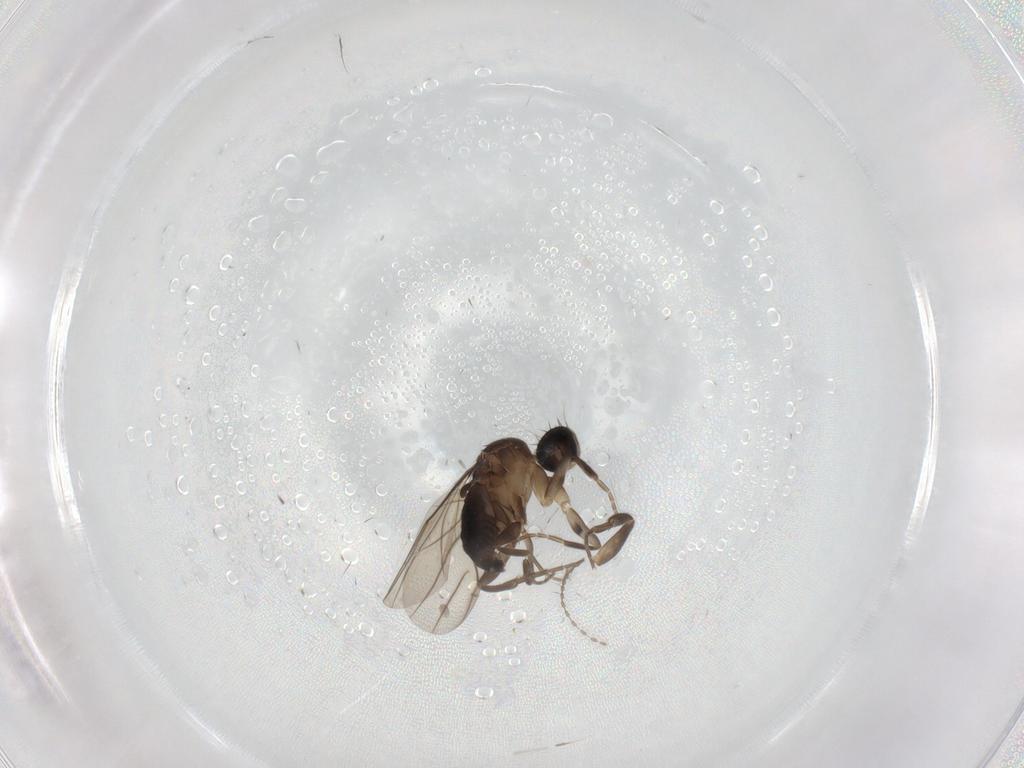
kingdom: Animalia
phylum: Arthropoda
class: Insecta
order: Diptera
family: Phoridae
